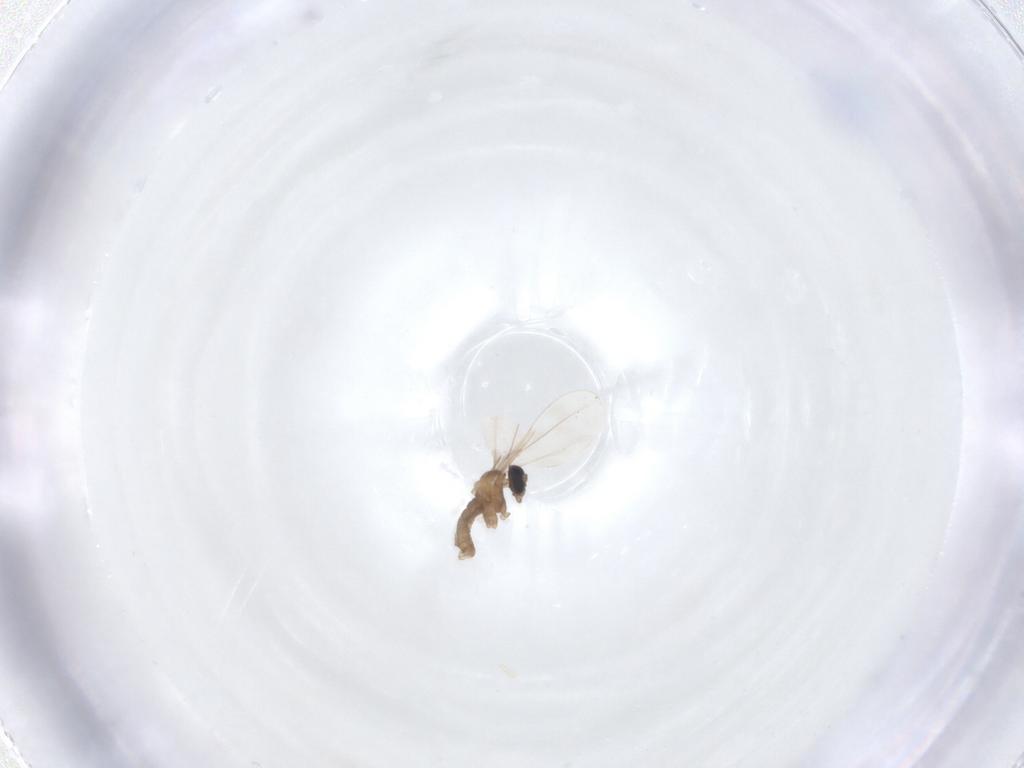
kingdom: Animalia
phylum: Arthropoda
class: Insecta
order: Diptera
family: Cecidomyiidae
